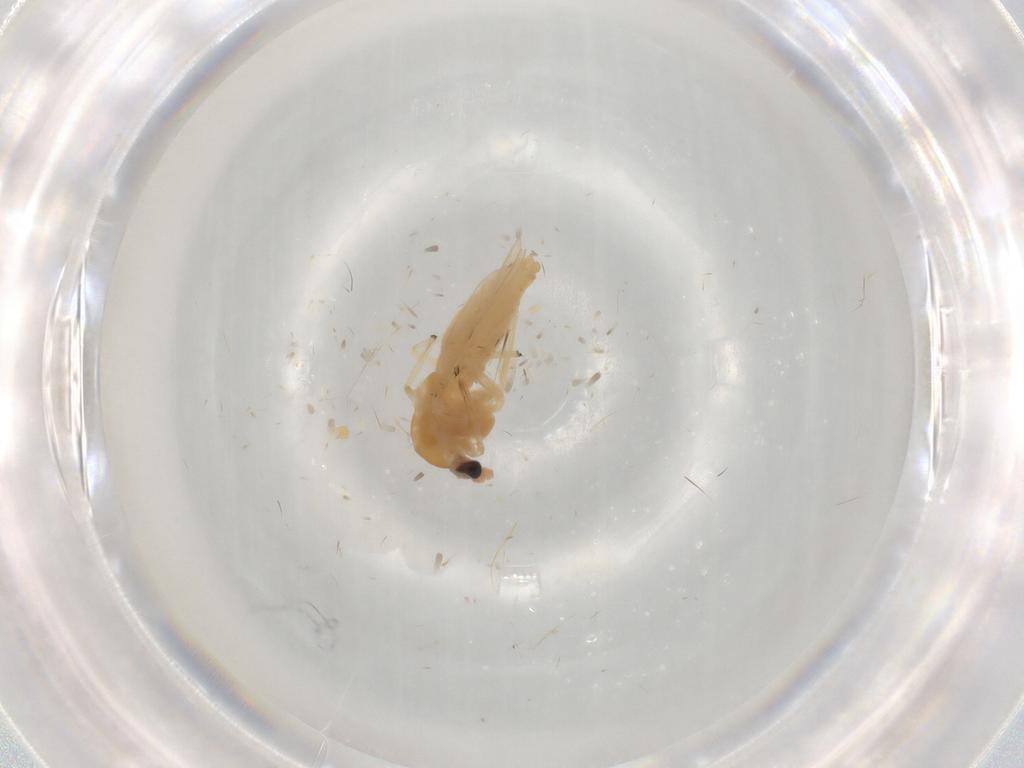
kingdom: Animalia
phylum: Arthropoda
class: Insecta
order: Diptera
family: Chironomidae
